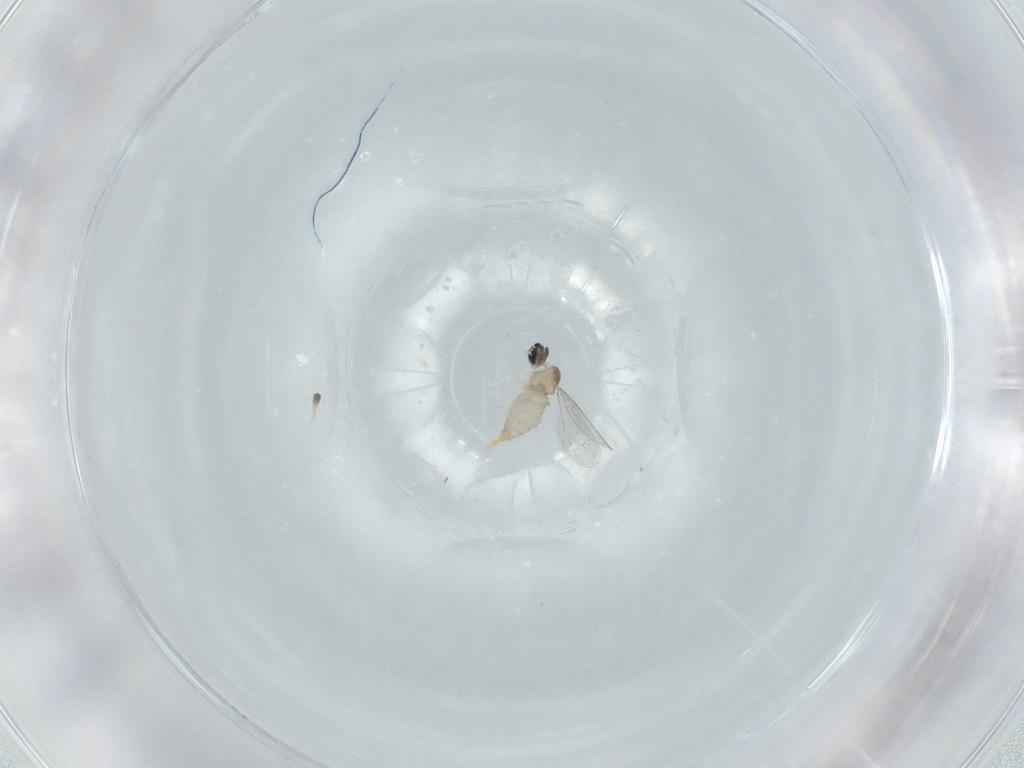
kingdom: Animalia
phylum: Arthropoda
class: Insecta
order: Diptera
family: Cecidomyiidae
